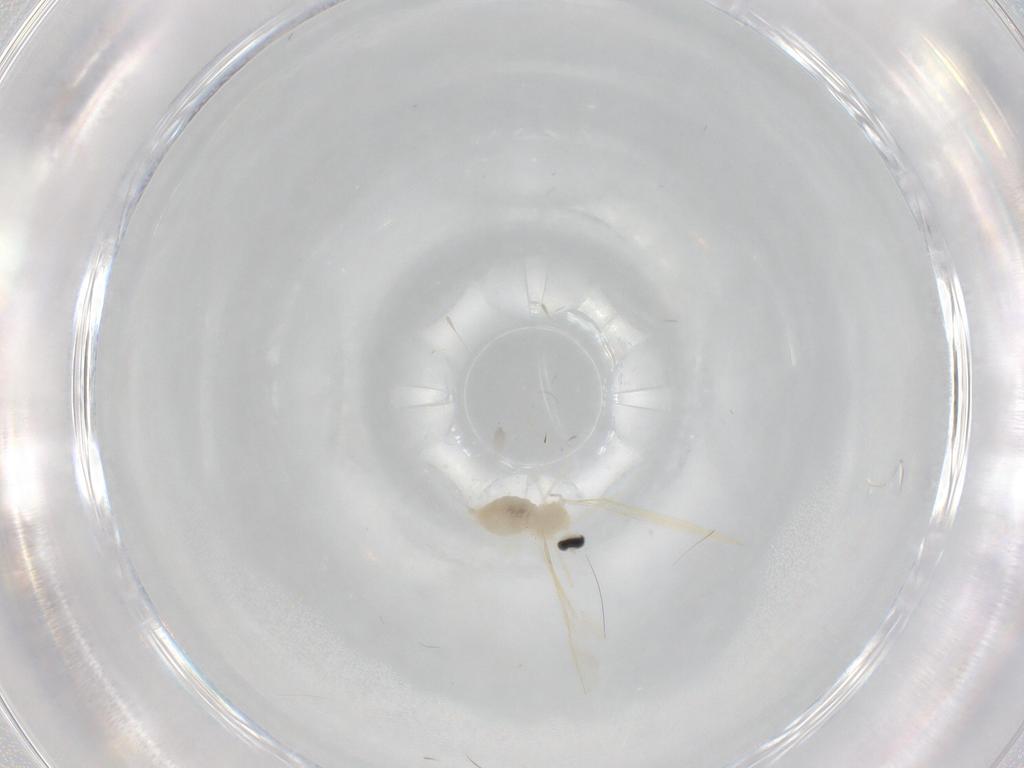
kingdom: Animalia
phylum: Arthropoda
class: Insecta
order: Diptera
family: Cecidomyiidae
